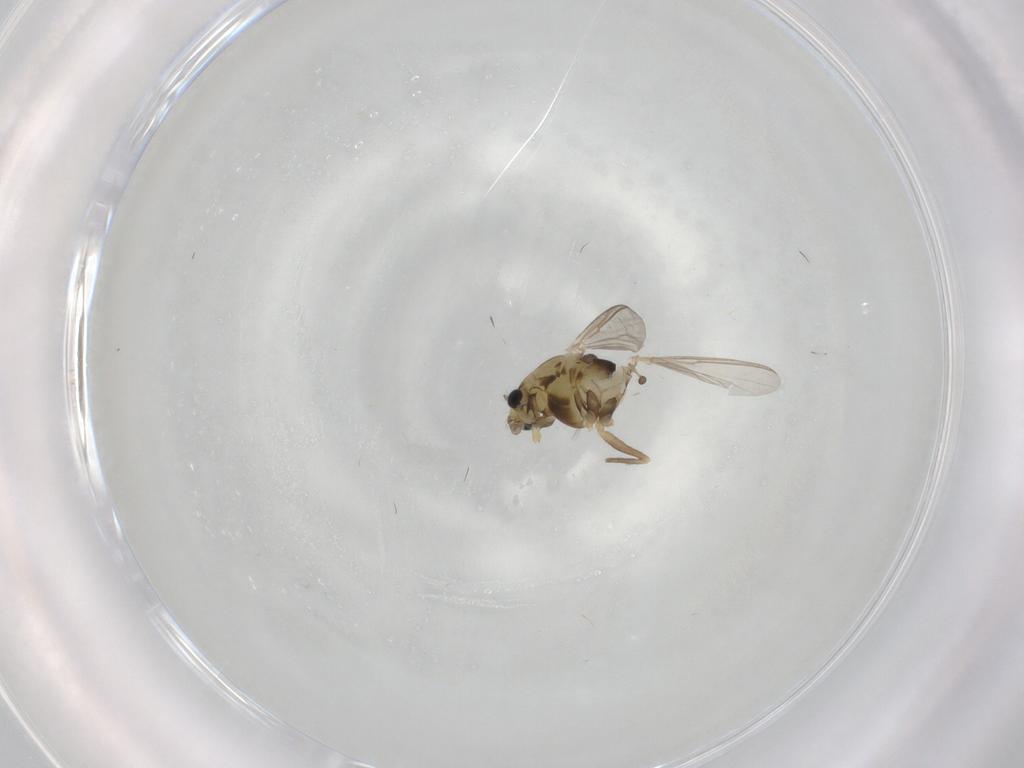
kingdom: Animalia
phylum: Arthropoda
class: Insecta
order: Diptera
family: Chironomidae
